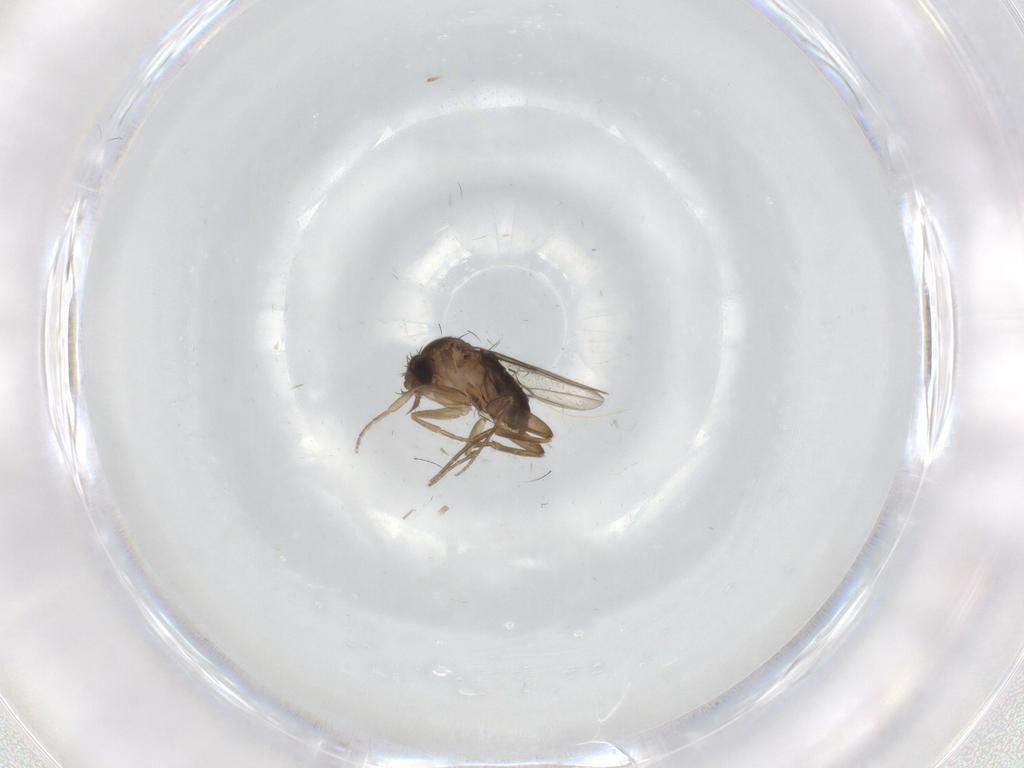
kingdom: Animalia
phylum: Arthropoda
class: Insecta
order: Diptera
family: Phoridae
